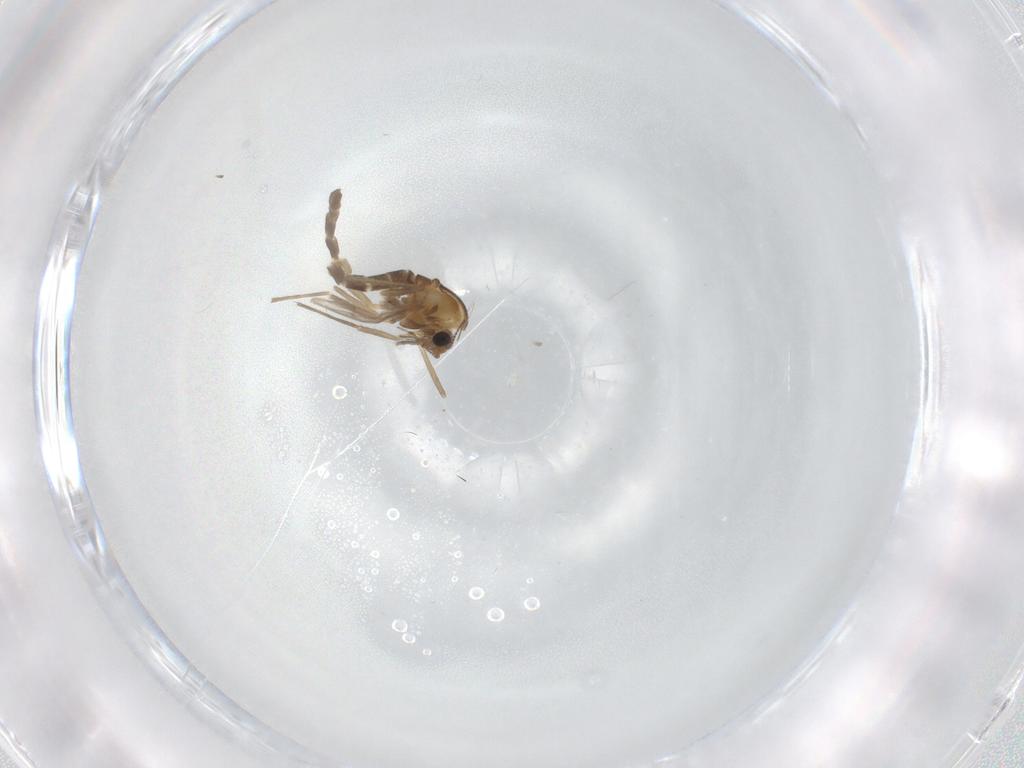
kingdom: Animalia
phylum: Arthropoda
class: Insecta
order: Diptera
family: Chironomidae
